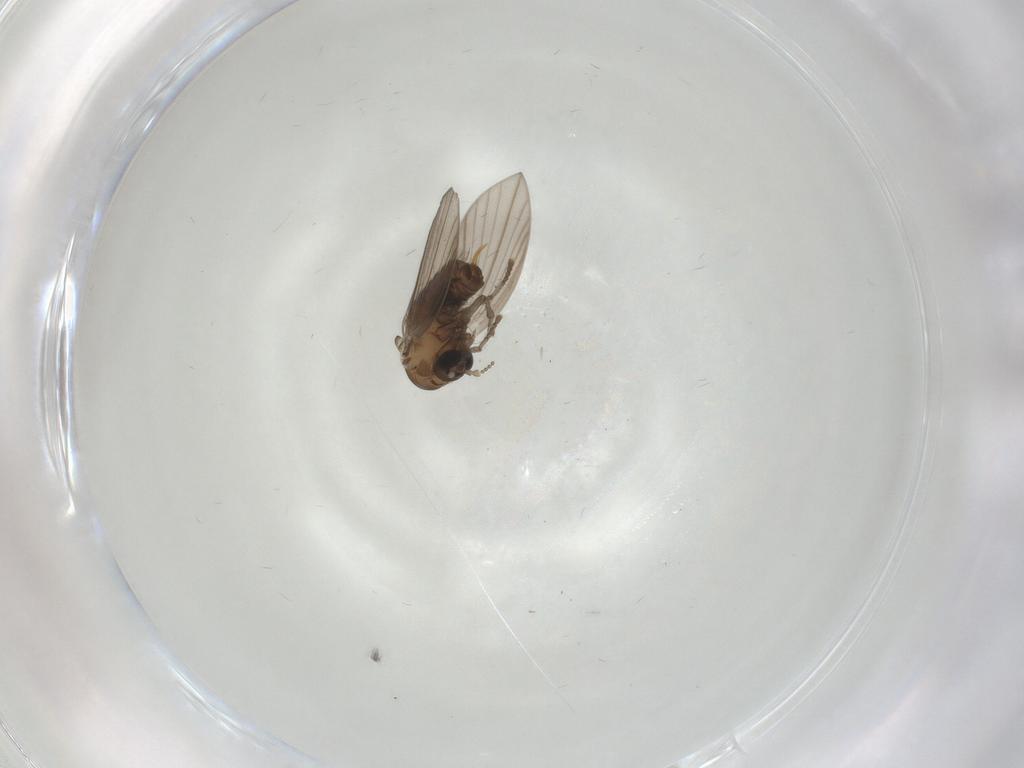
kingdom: Animalia
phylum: Arthropoda
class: Insecta
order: Diptera
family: Psychodidae
